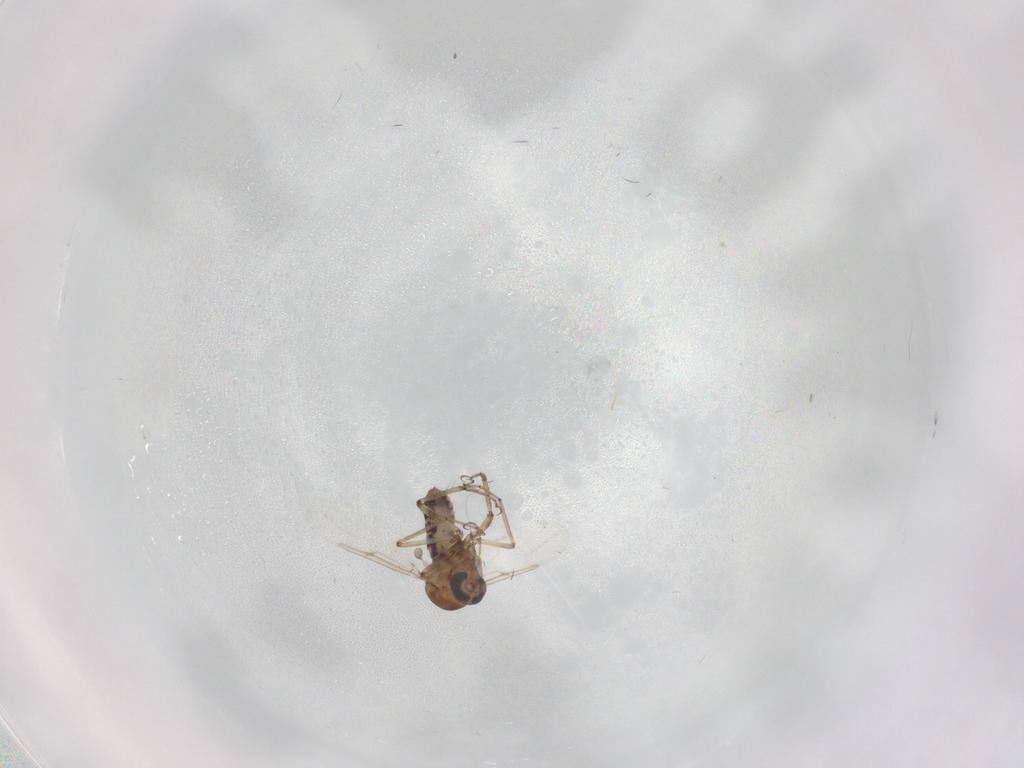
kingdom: Animalia
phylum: Arthropoda
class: Insecta
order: Diptera
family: Ceratopogonidae
